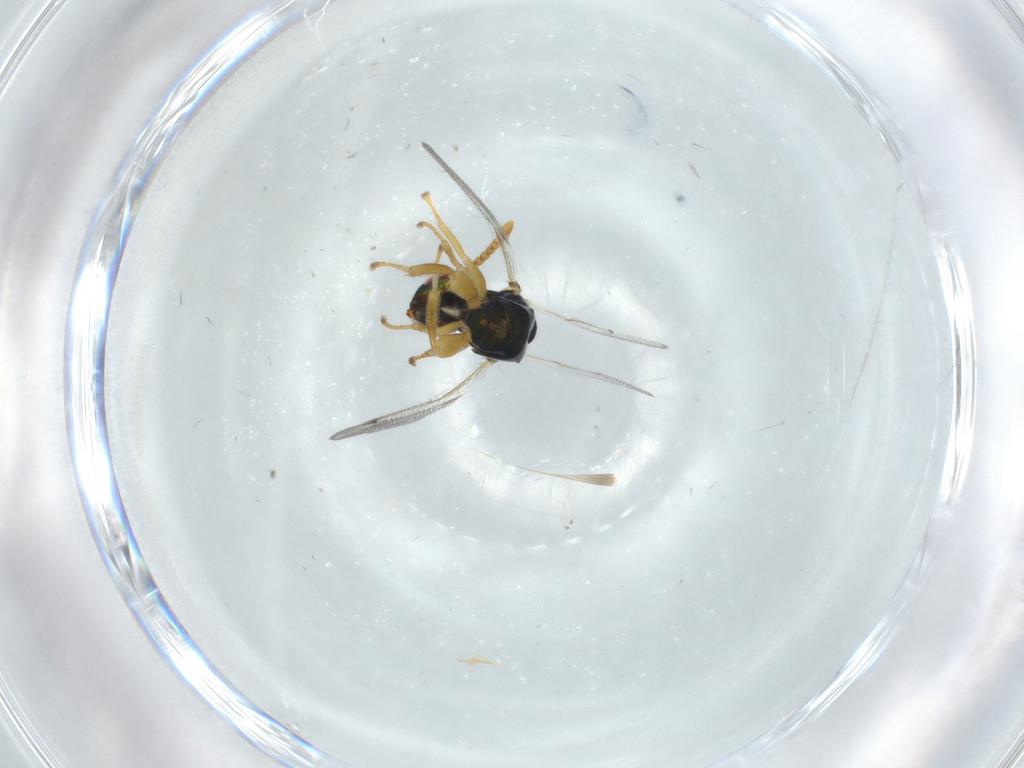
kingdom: Animalia
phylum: Arthropoda
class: Insecta
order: Hymenoptera
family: Torymidae
